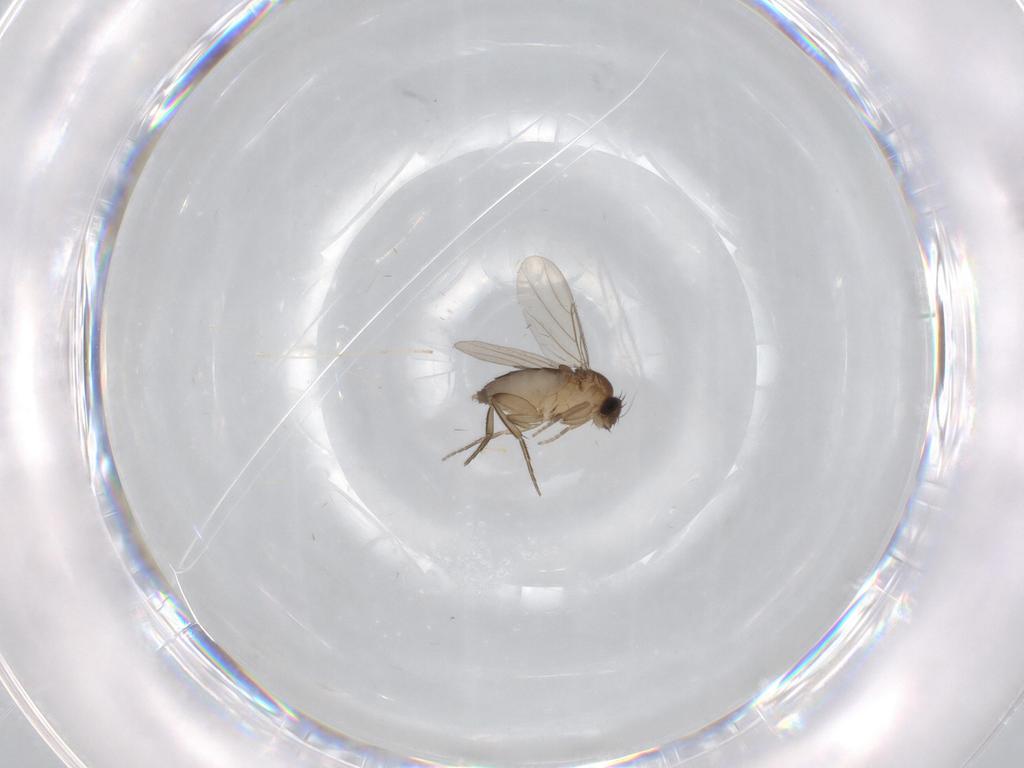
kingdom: Animalia
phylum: Arthropoda
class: Insecta
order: Diptera
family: Phoridae
